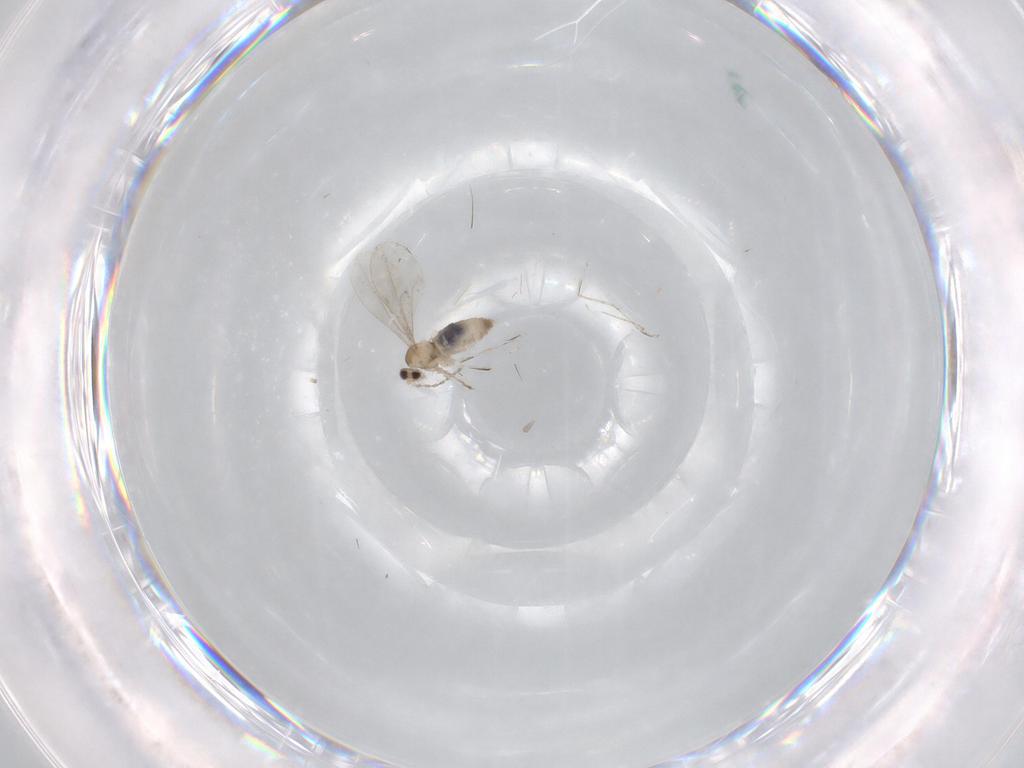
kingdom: Animalia
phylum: Arthropoda
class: Insecta
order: Diptera
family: Cecidomyiidae
